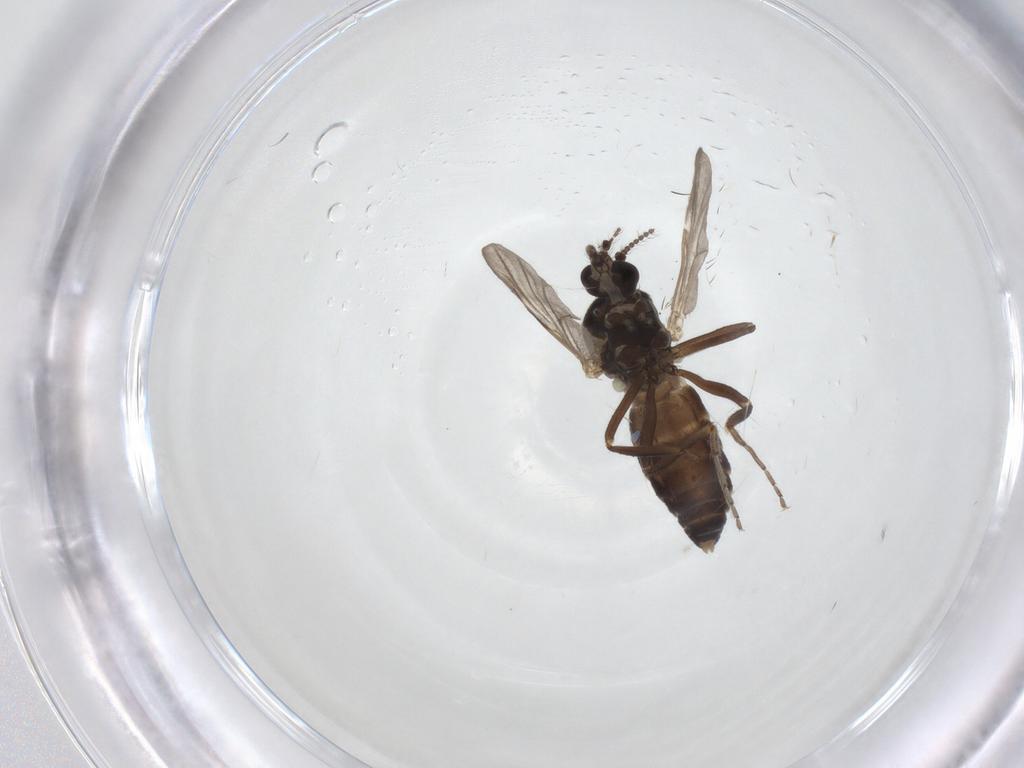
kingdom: Animalia
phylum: Arthropoda
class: Insecta
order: Diptera
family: Ceratopogonidae
